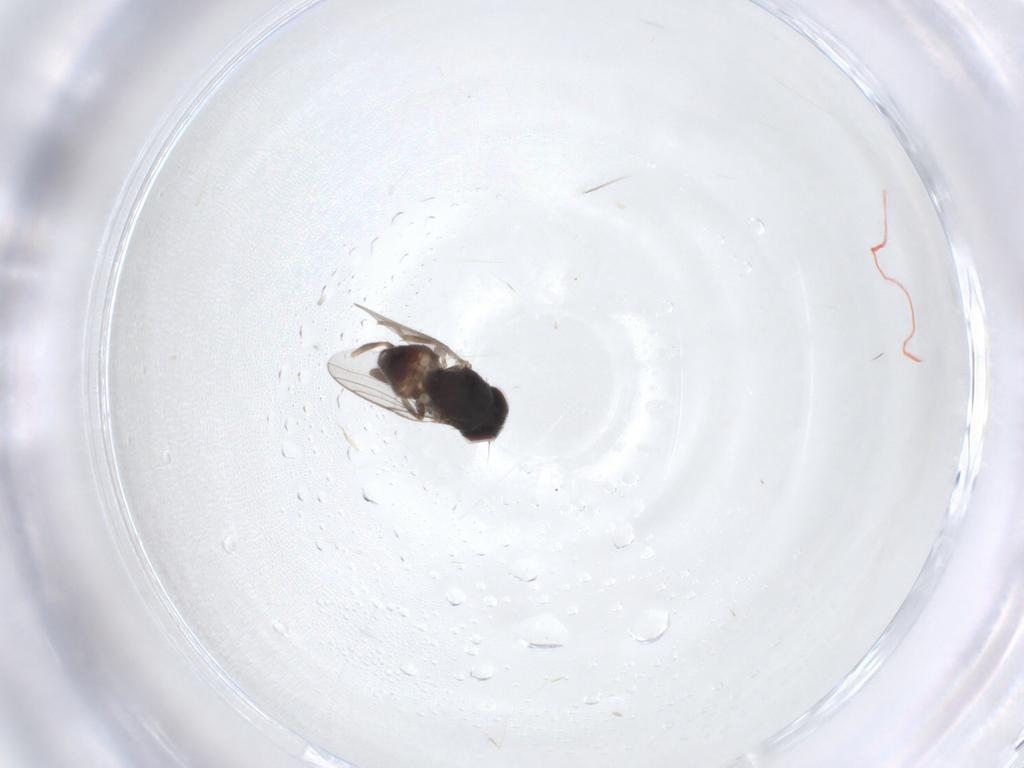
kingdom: Animalia
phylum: Arthropoda
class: Insecta
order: Diptera
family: Chloropidae
